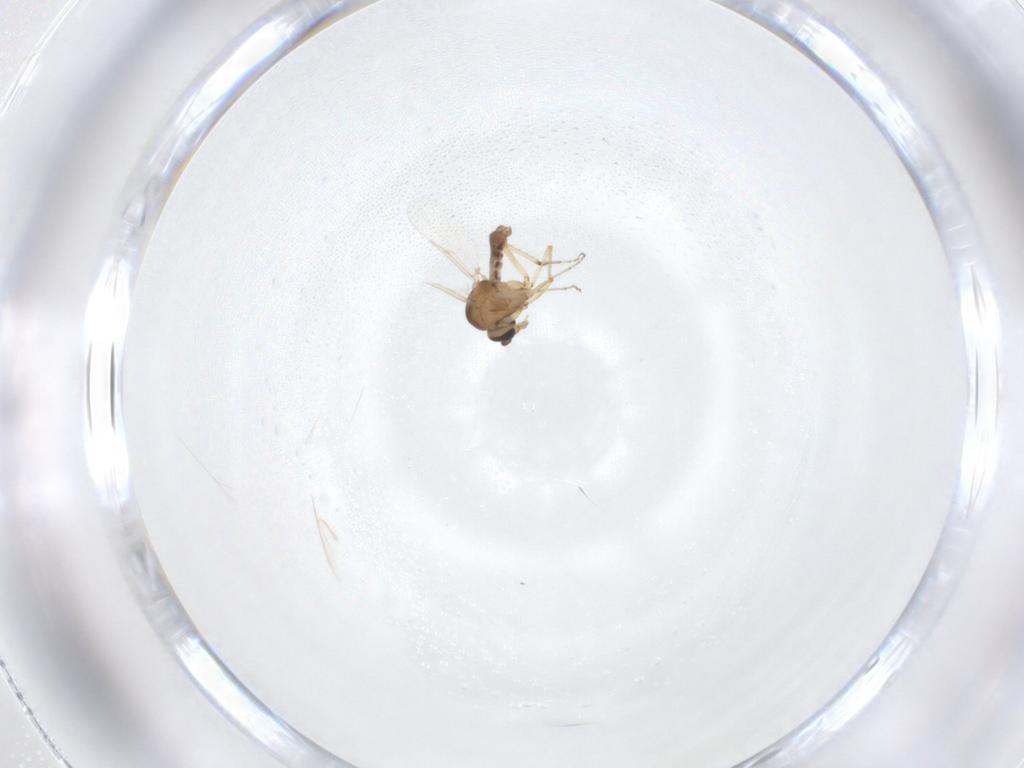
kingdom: Animalia
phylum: Arthropoda
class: Insecta
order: Diptera
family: Ceratopogonidae
